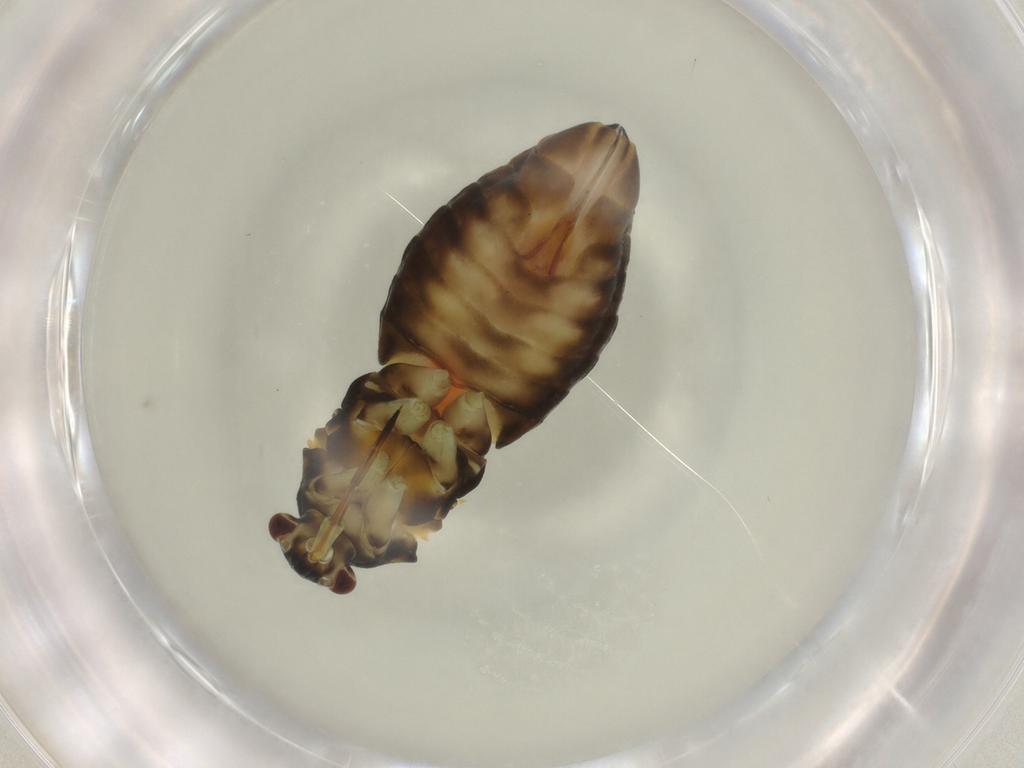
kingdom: Animalia
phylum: Arthropoda
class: Insecta
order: Hemiptera
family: Miridae
